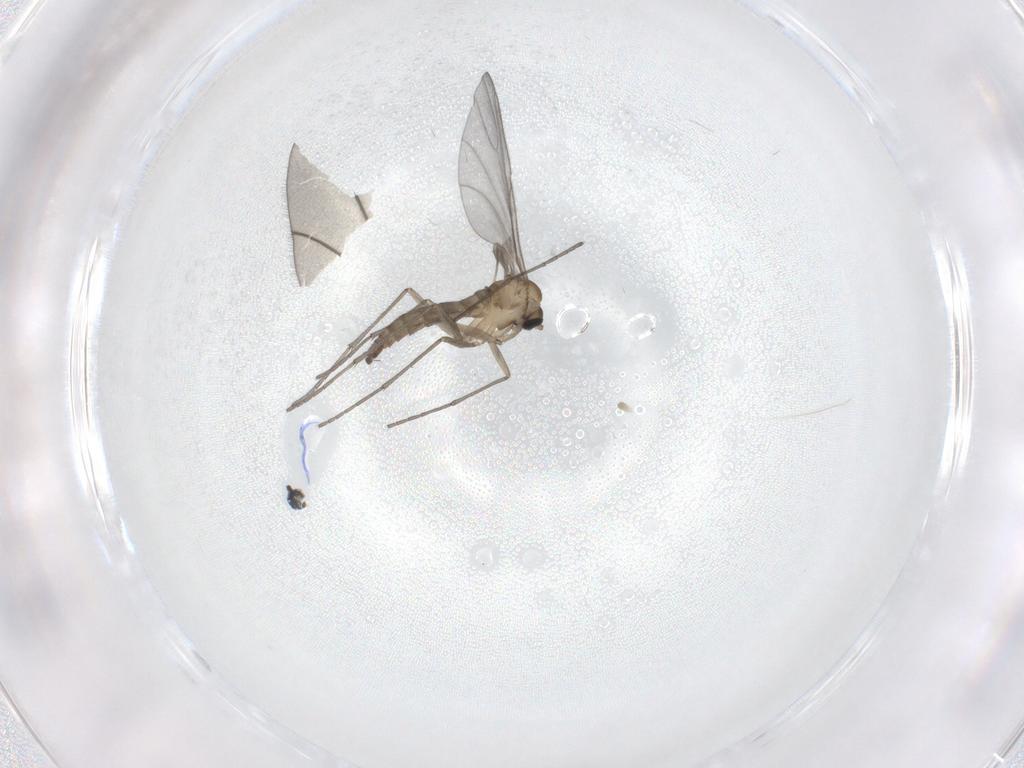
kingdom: Animalia
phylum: Arthropoda
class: Insecta
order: Diptera
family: Sciaridae
